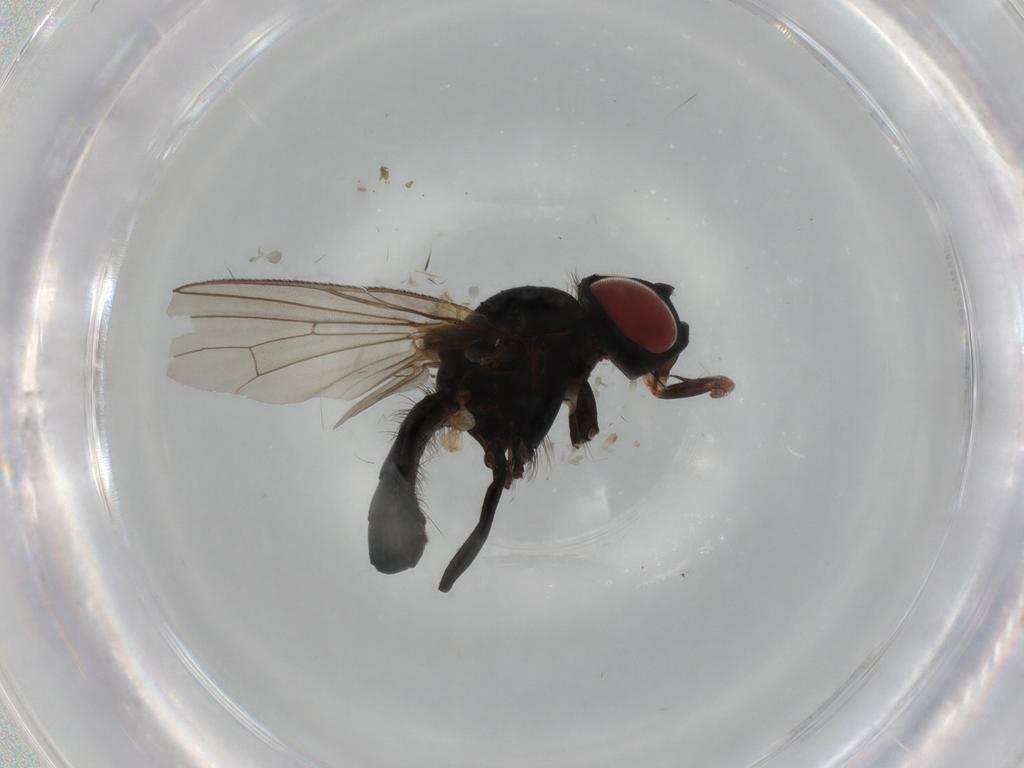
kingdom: Animalia
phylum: Arthropoda
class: Insecta
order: Diptera
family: Anthomyiidae
